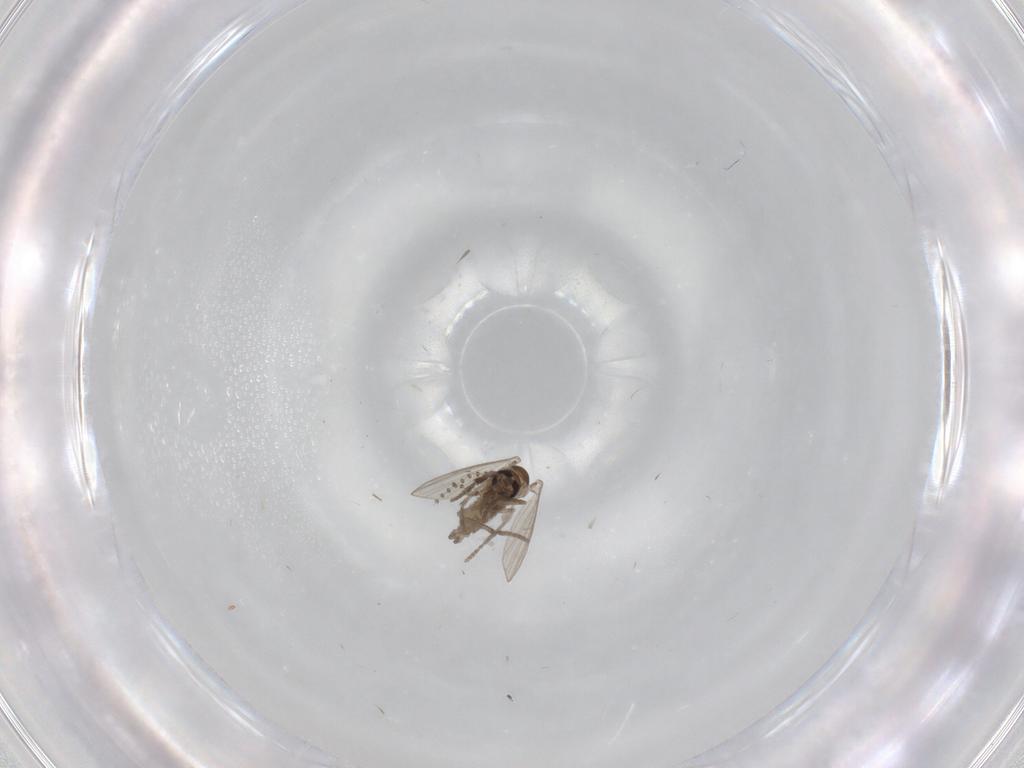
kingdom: Animalia
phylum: Arthropoda
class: Insecta
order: Diptera
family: Psychodidae
